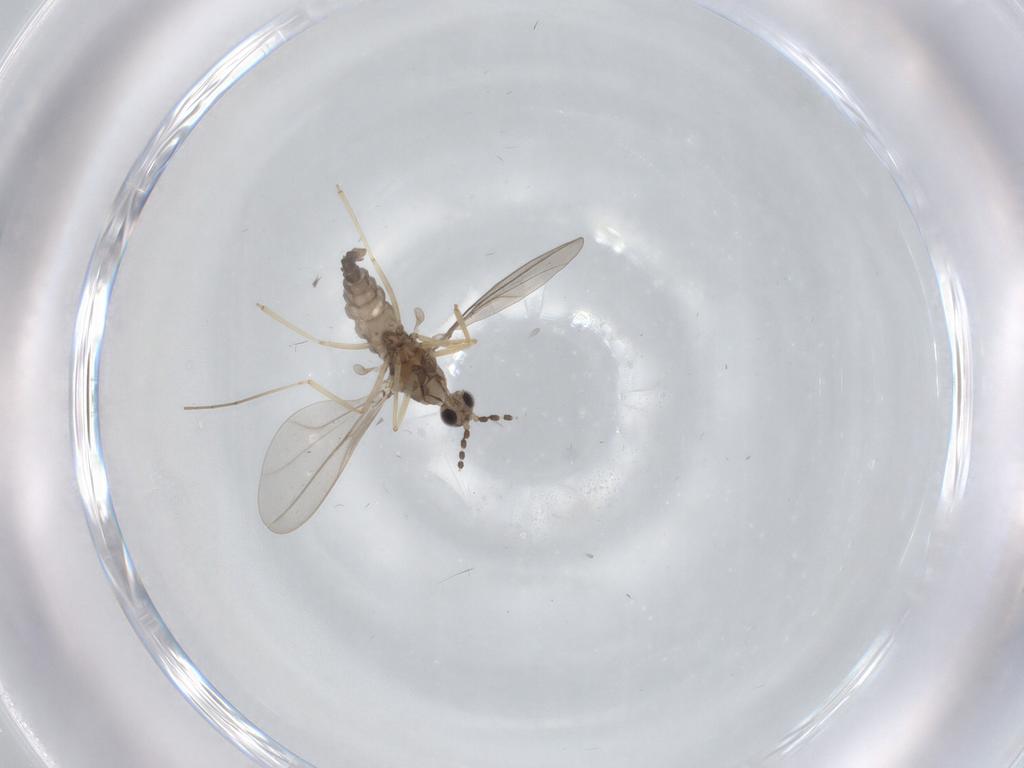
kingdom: Animalia
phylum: Arthropoda
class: Insecta
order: Diptera
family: Cecidomyiidae
